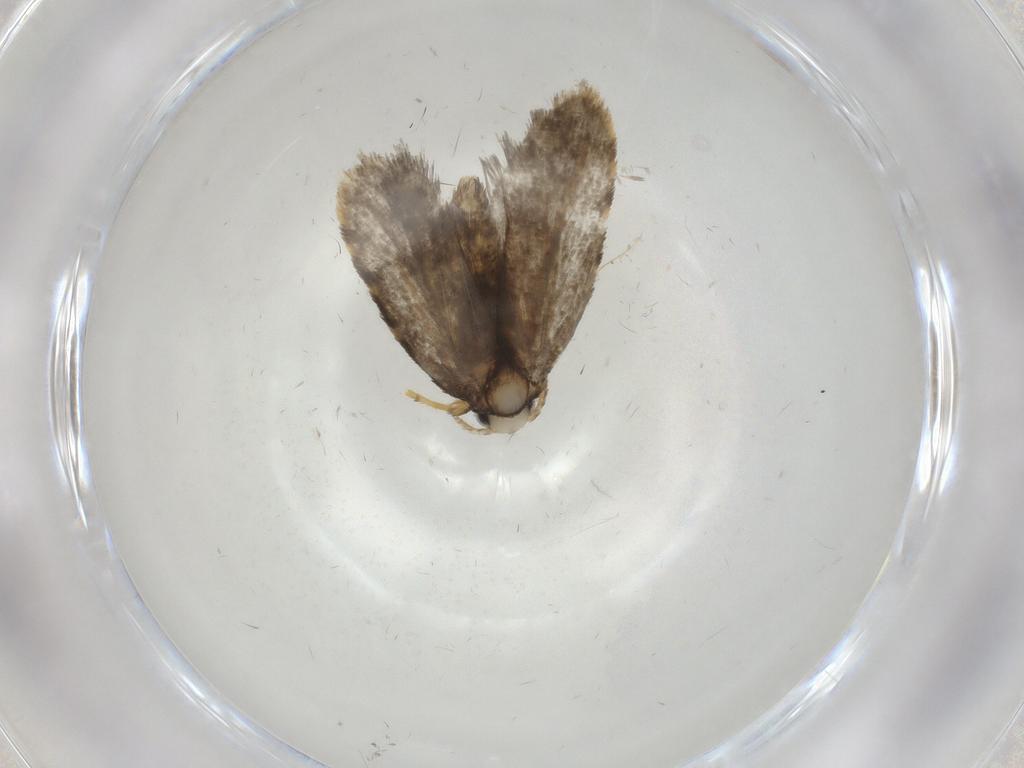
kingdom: Animalia
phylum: Arthropoda
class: Insecta
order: Lepidoptera
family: Psychidae
